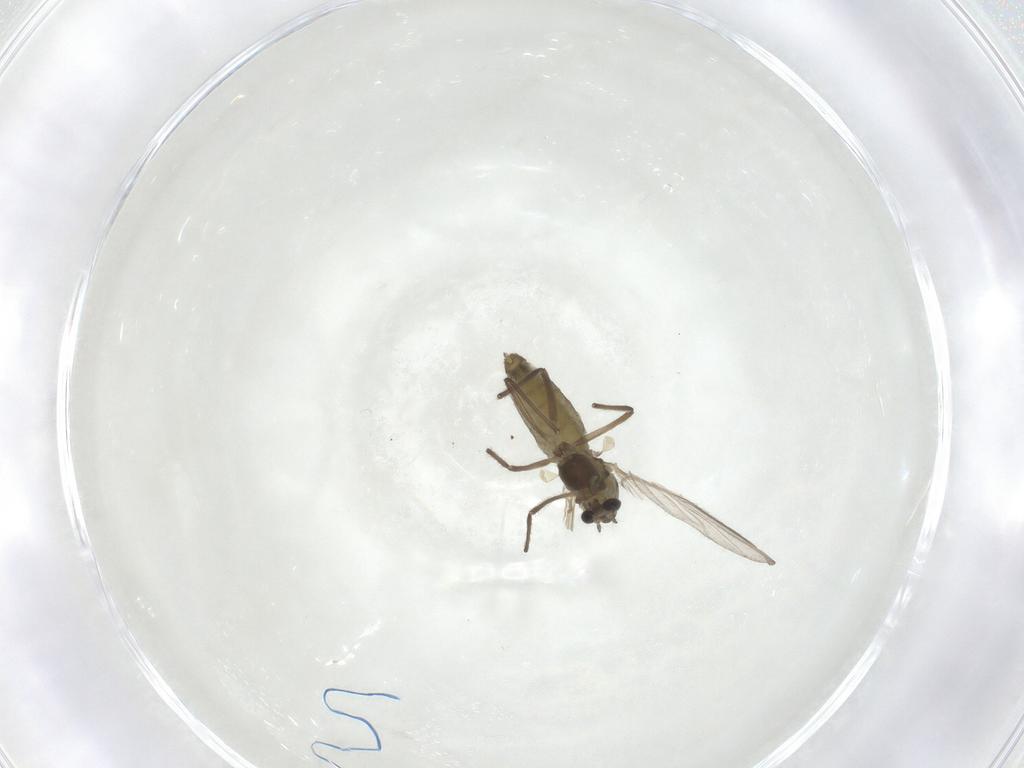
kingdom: Animalia
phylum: Arthropoda
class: Insecta
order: Diptera
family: Chironomidae
